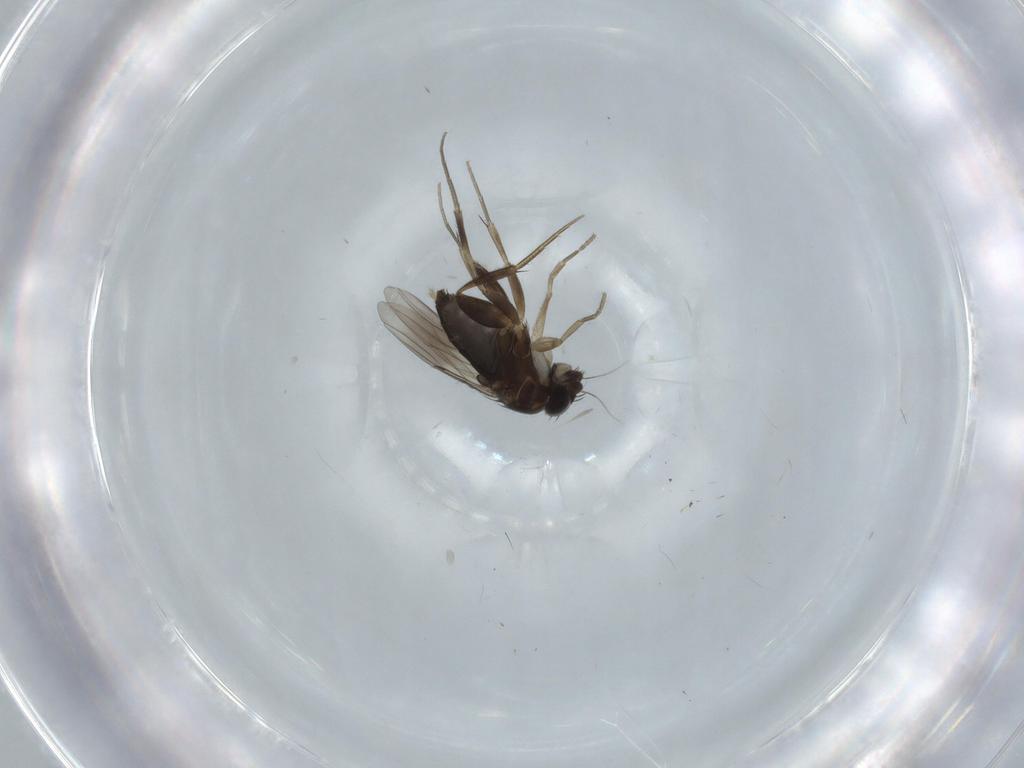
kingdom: Animalia
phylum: Arthropoda
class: Insecta
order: Diptera
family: Phoridae
